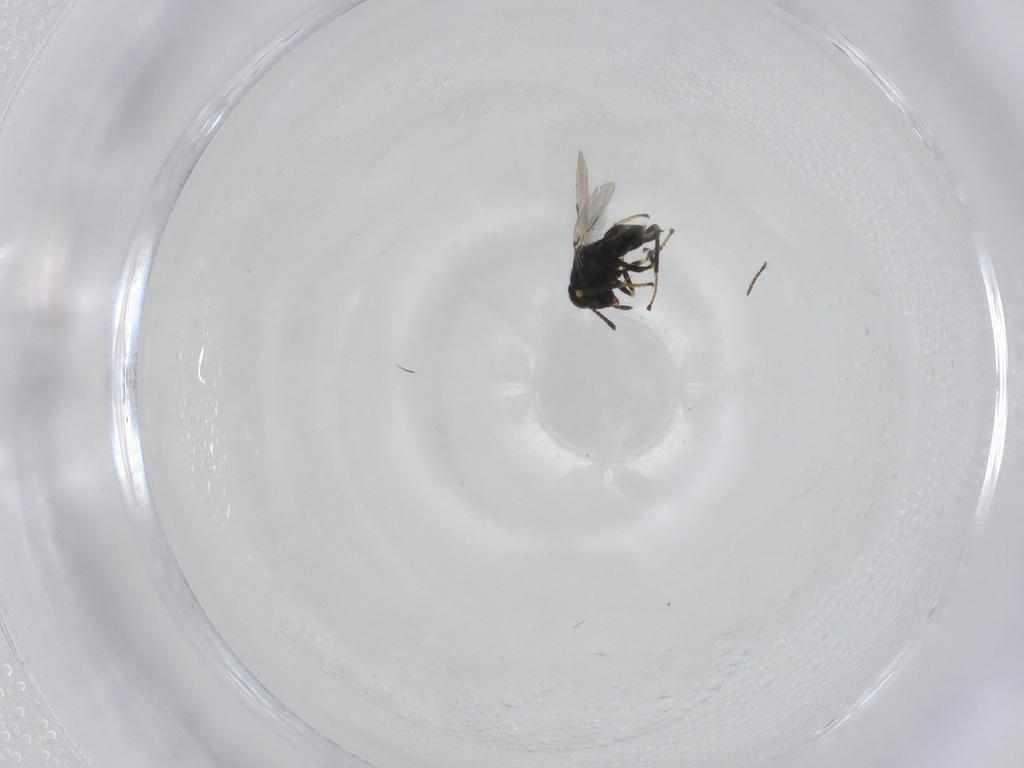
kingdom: Animalia
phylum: Arthropoda
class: Insecta
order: Hymenoptera
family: Encyrtidae
